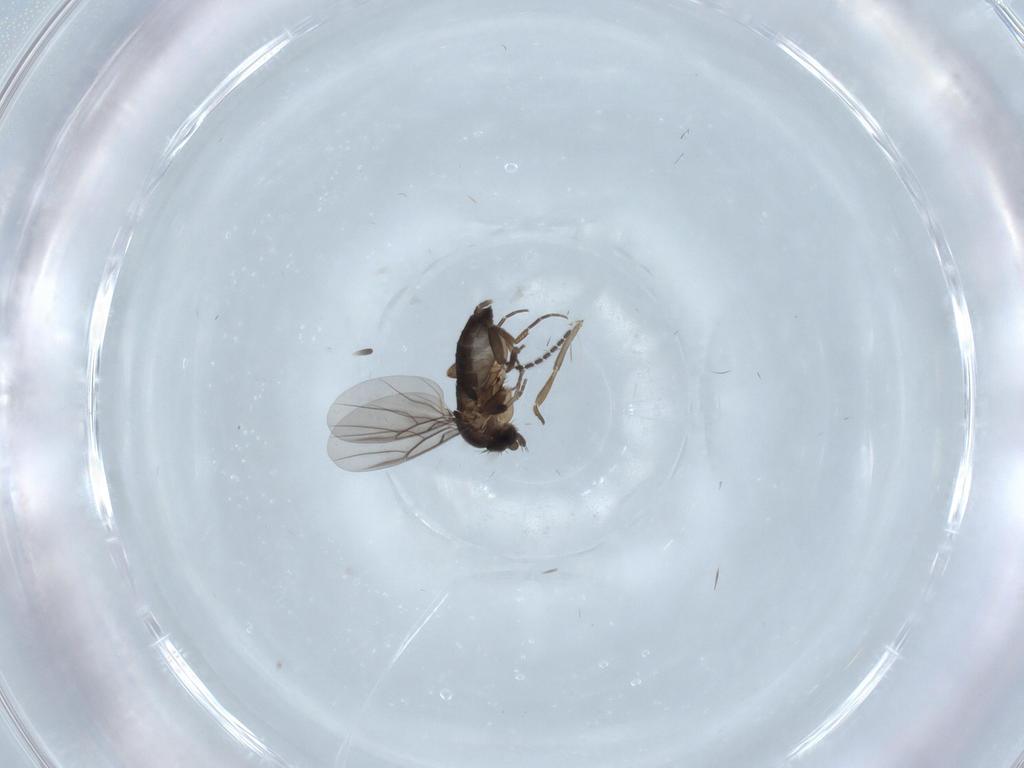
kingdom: Animalia
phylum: Arthropoda
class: Insecta
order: Diptera
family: Phoridae
